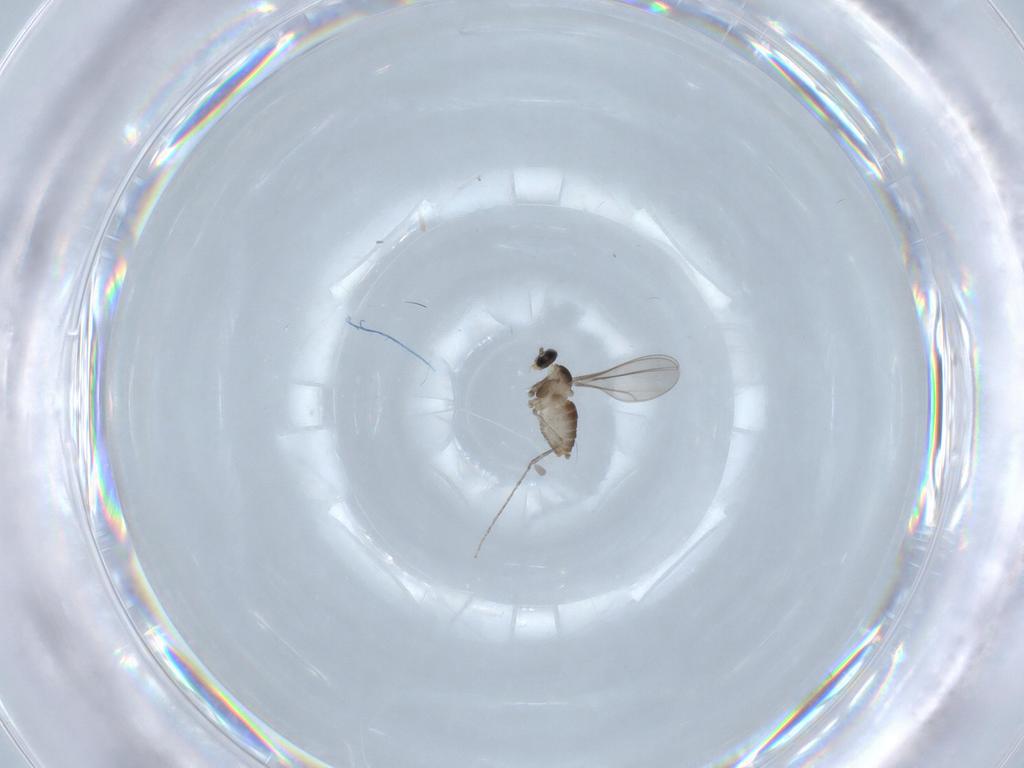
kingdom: Animalia
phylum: Arthropoda
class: Insecta
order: Diptera
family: Cecidomyiidae
